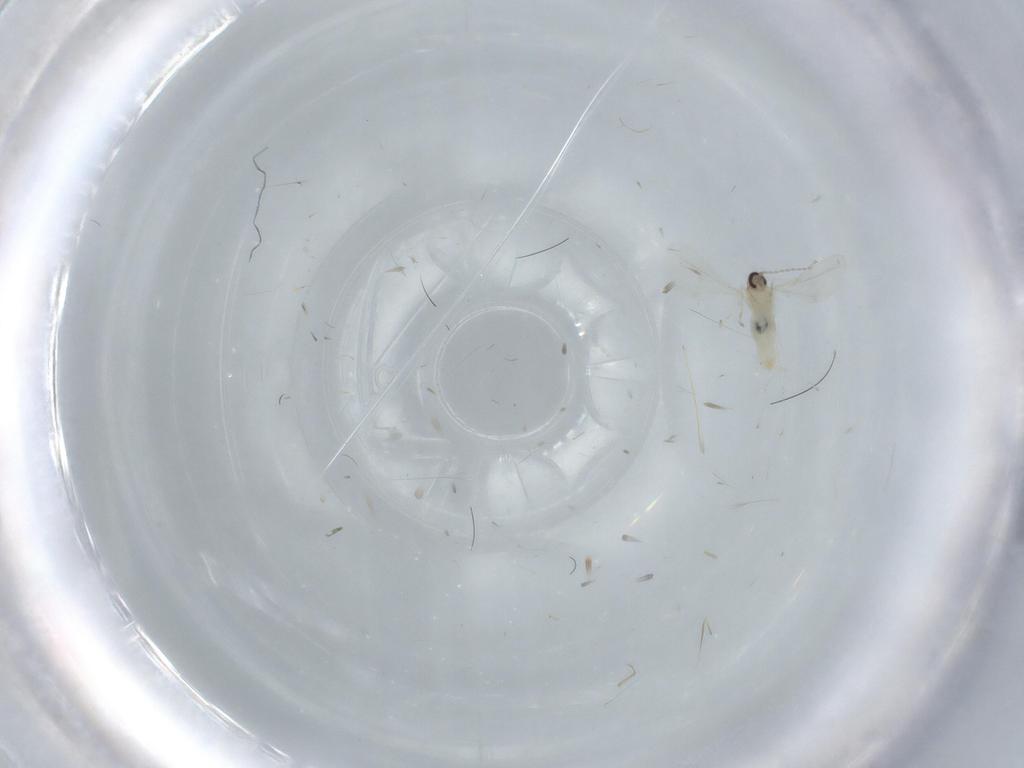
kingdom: Animalia
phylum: Arthropoda
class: Insecta
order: Diptera
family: Cecidomyiidae
